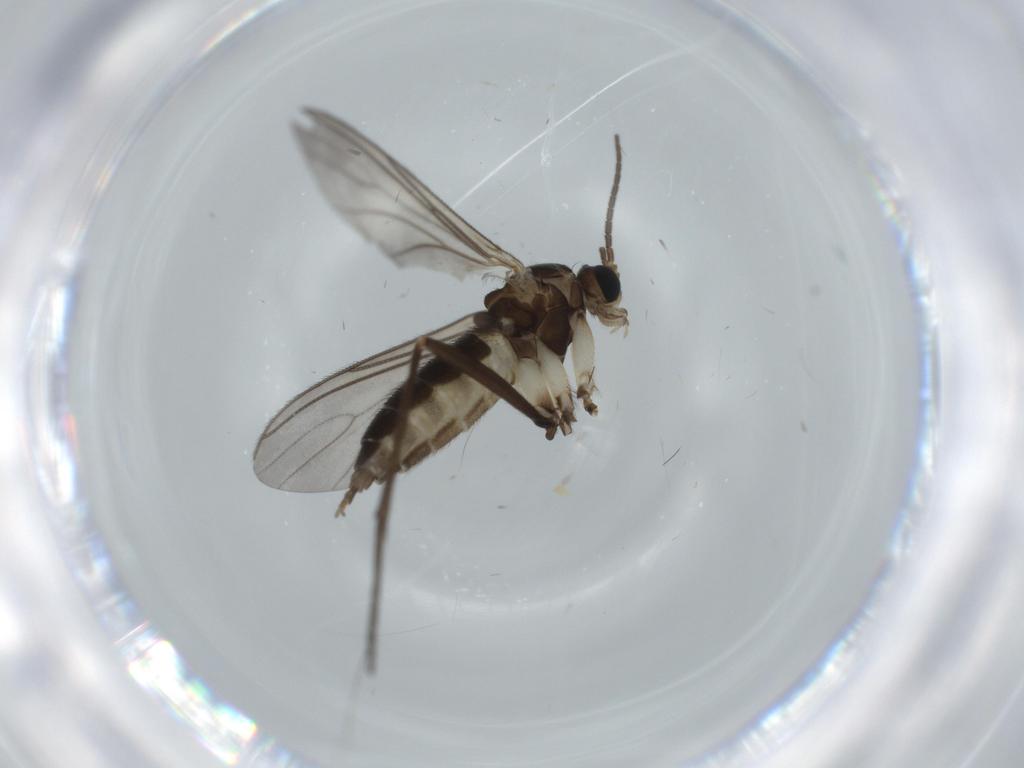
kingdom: Animalia
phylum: Arthropoda
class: Insecta
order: Diptera
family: Sciaridae
